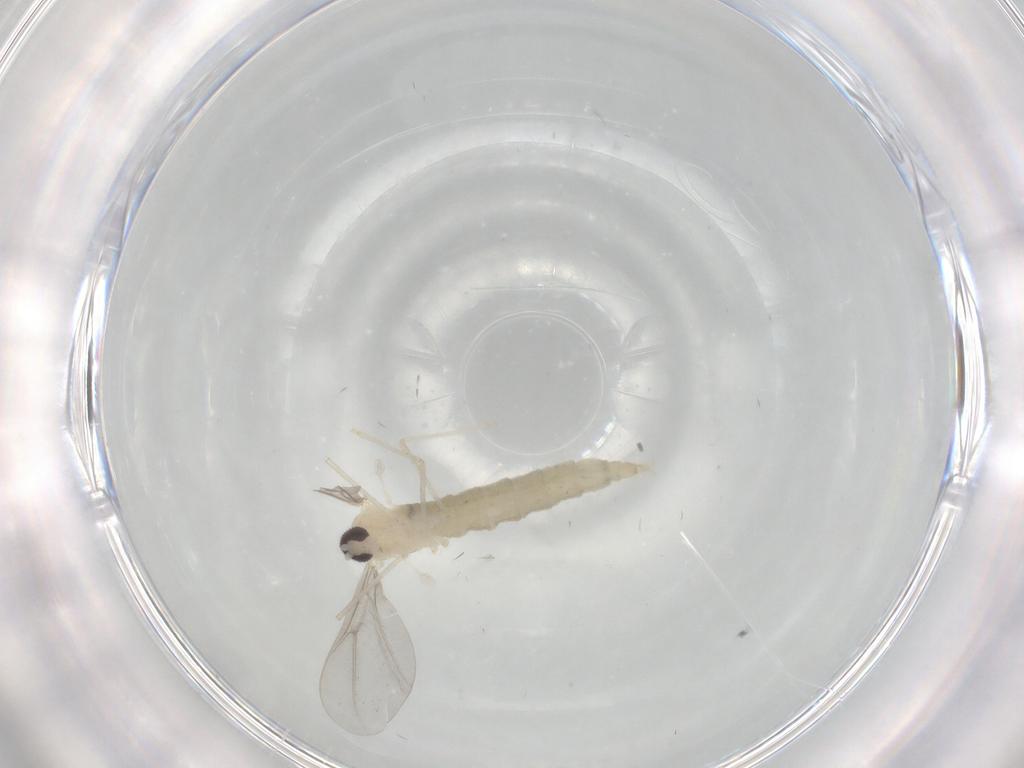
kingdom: Animalia
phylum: Arthropoda
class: Insecta
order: Diptera
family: Cecidomyiidae
